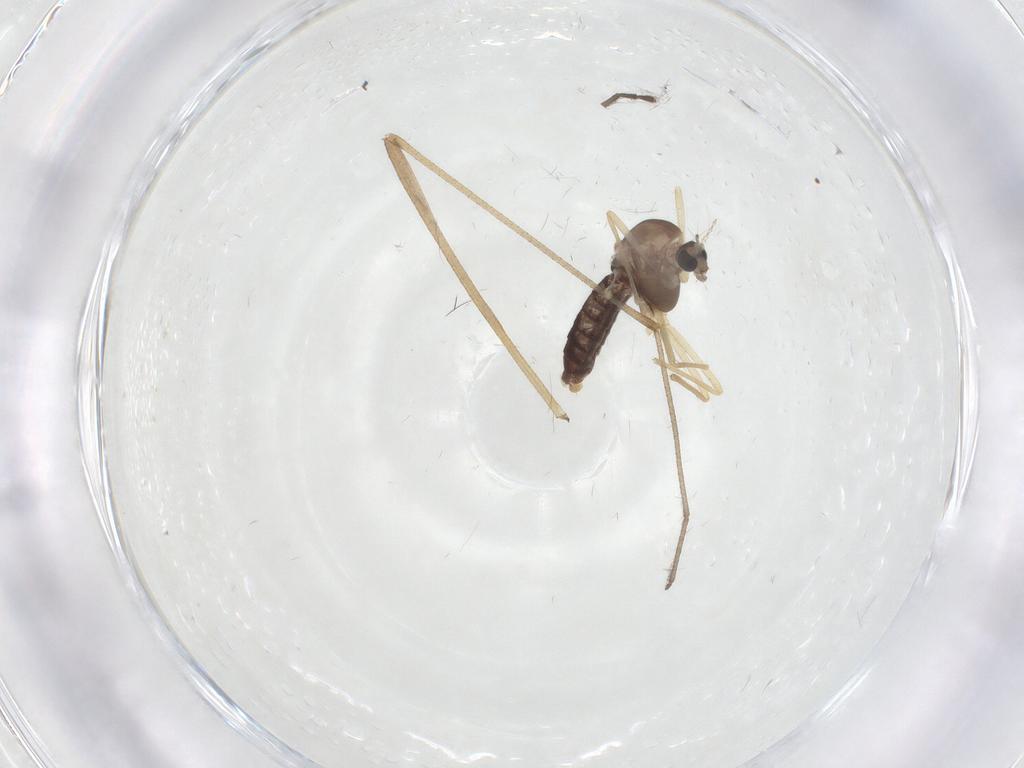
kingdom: Animalia
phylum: Arthropoda
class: Insecta
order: Diptera
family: Chironomidae
